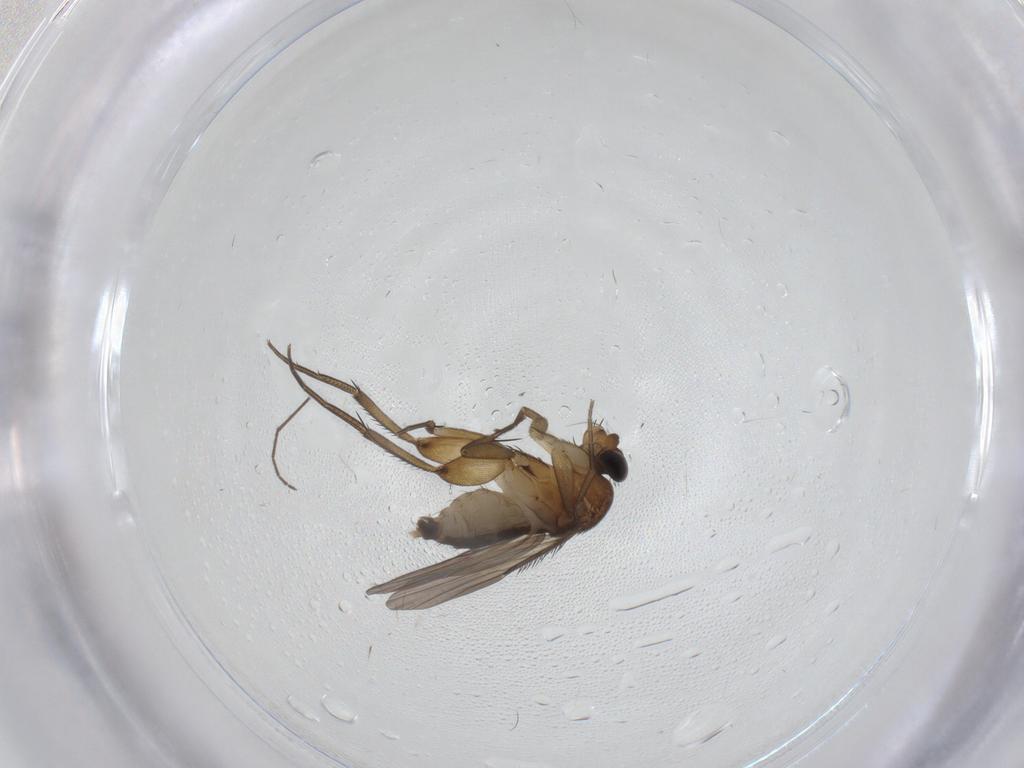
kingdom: Animalia
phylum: Arthropoda
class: Insecta
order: Diptera
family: Phoridae
